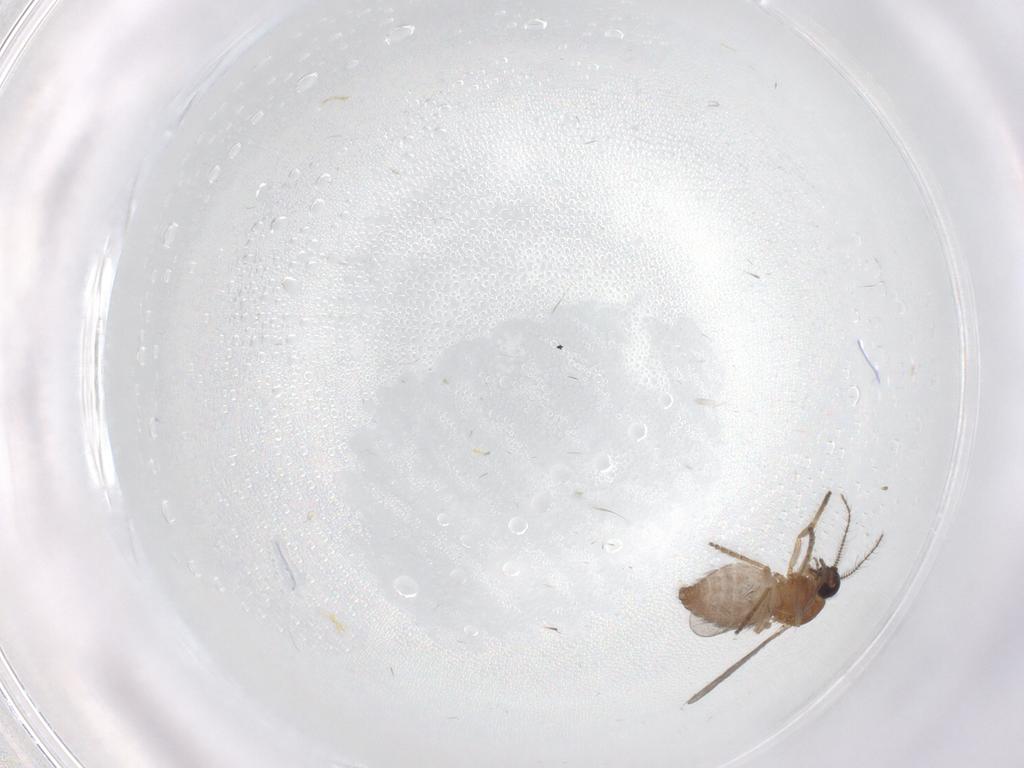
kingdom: Animalia
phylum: Arthropoda
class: Insecta
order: Diptera
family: Ceratopogonidae
